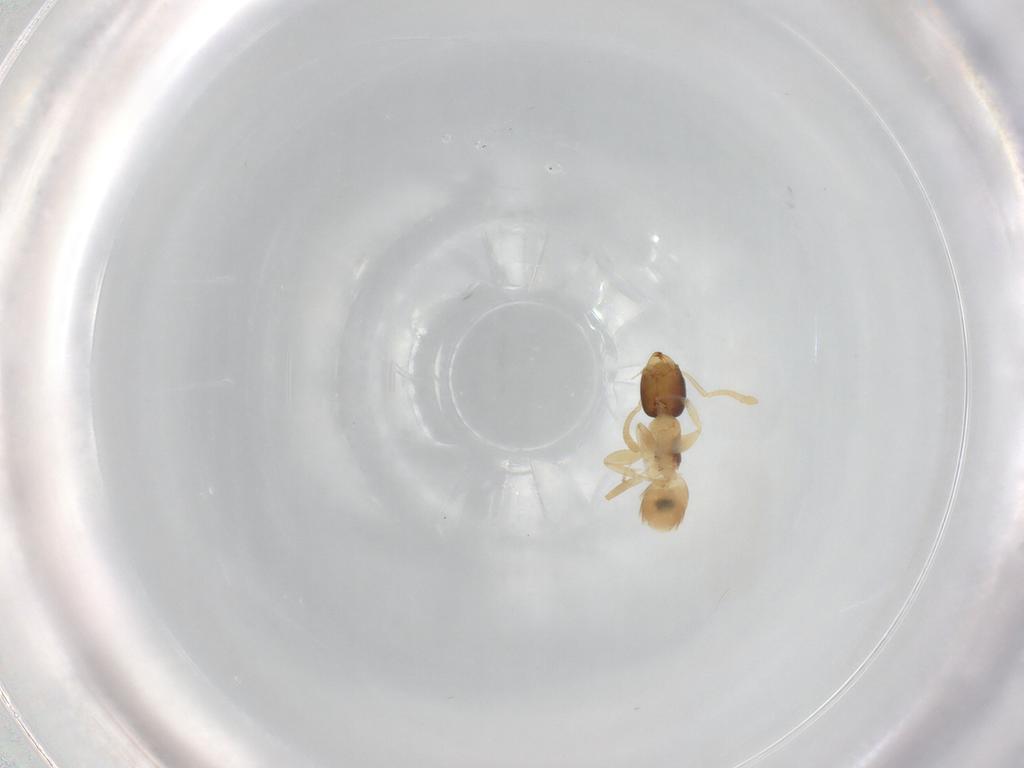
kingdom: Animalia
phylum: Arthropoda
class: Insecta
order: Hymenoptera
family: Formicidae
